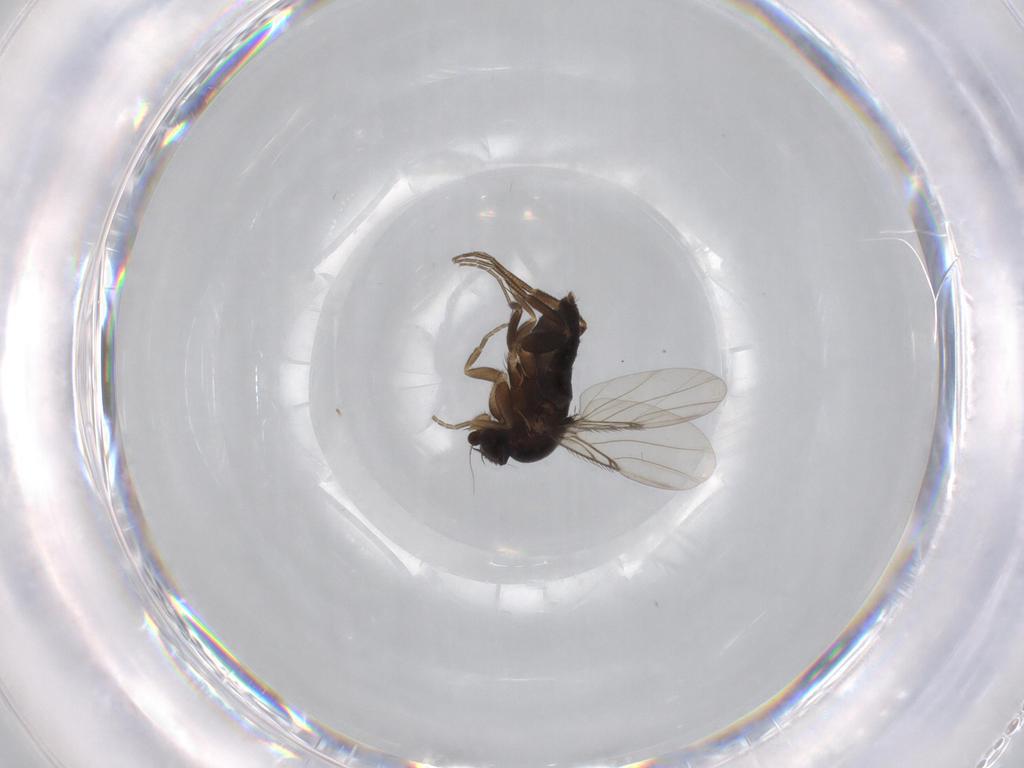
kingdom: Animalia
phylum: Arthropoda
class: Insecta
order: Diptera
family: Phoridae
